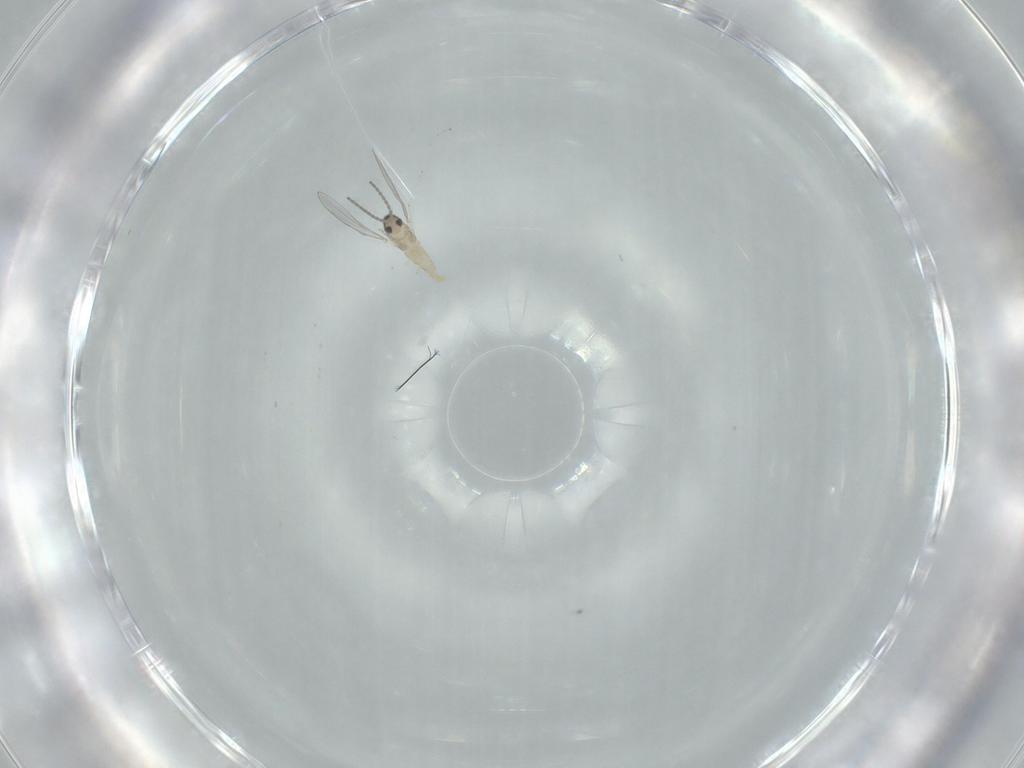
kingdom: Animalia
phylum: Arthropoda
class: Insecta
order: Diptera
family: Cecidomyiidae
